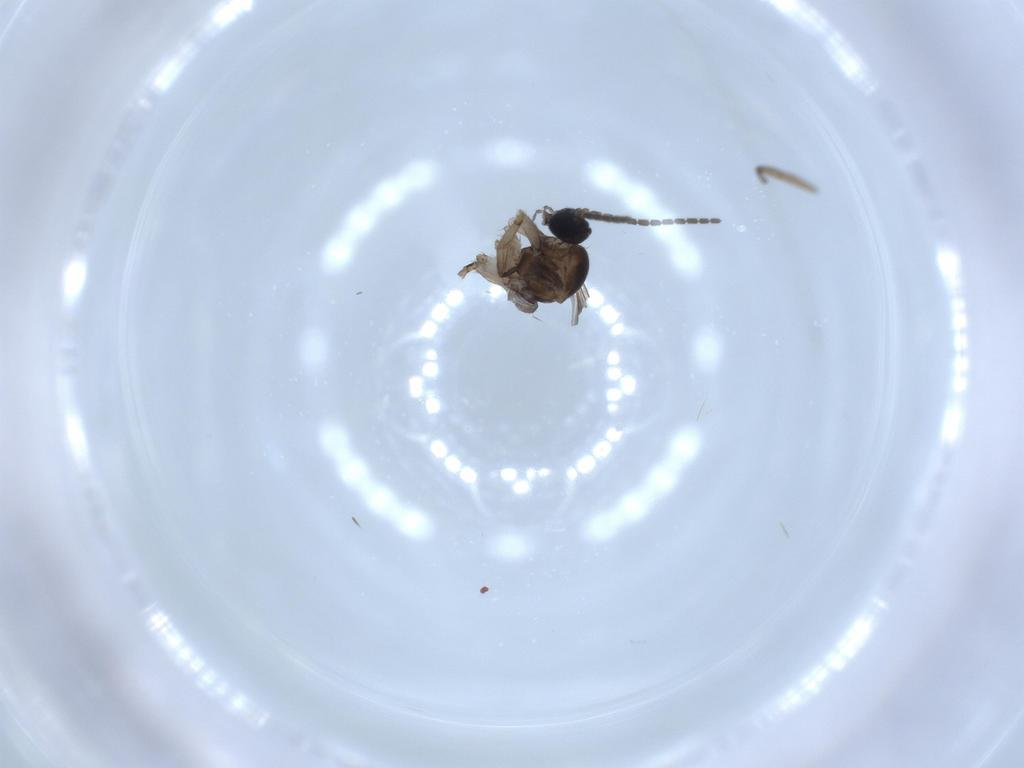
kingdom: Animalia
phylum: Arthropoda
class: Insecta
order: Diptera
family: Sciaridae
